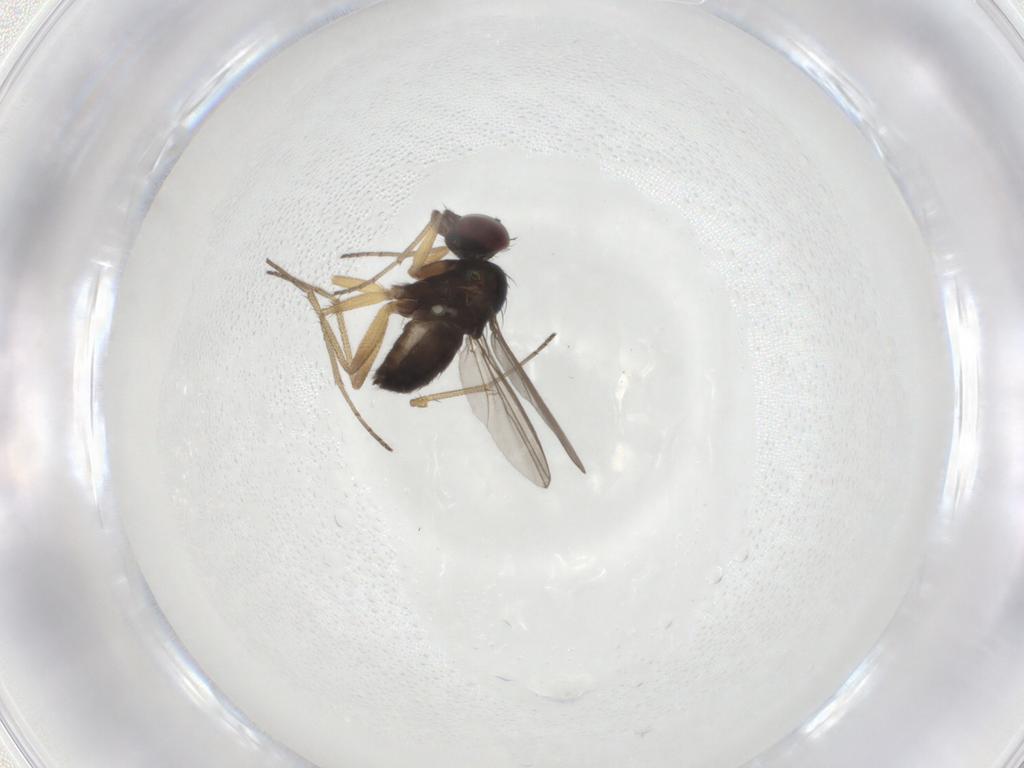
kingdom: Animalia
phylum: Arthropoda
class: Insecta
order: Diptera
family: Dolichopodidae
